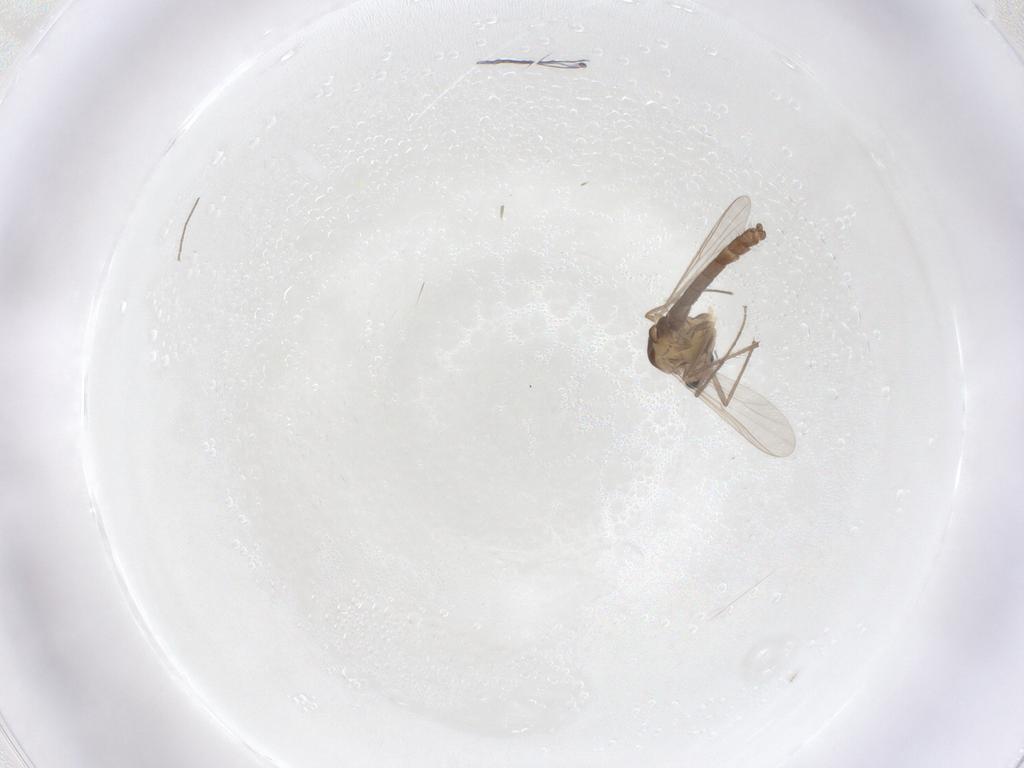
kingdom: Animalia
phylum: Arthropoda
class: Insecta
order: Diptera
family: Chironomidae
